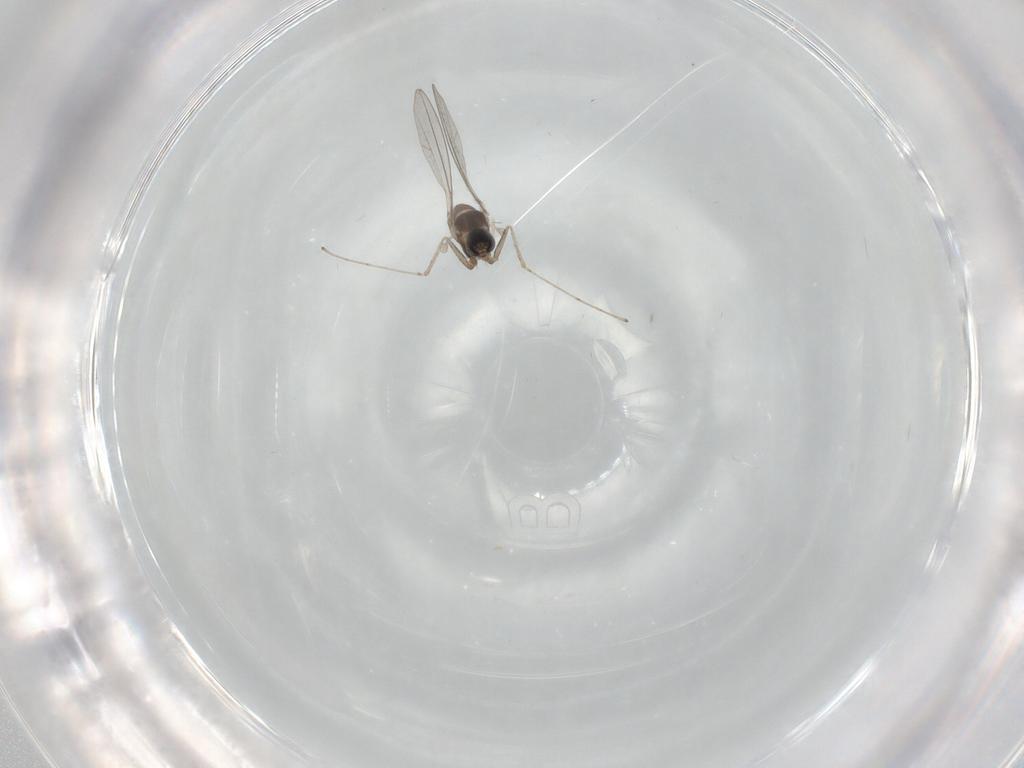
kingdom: Animalia
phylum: Arthropoda
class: Insecta
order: Diptera
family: Cecidomyiidae
